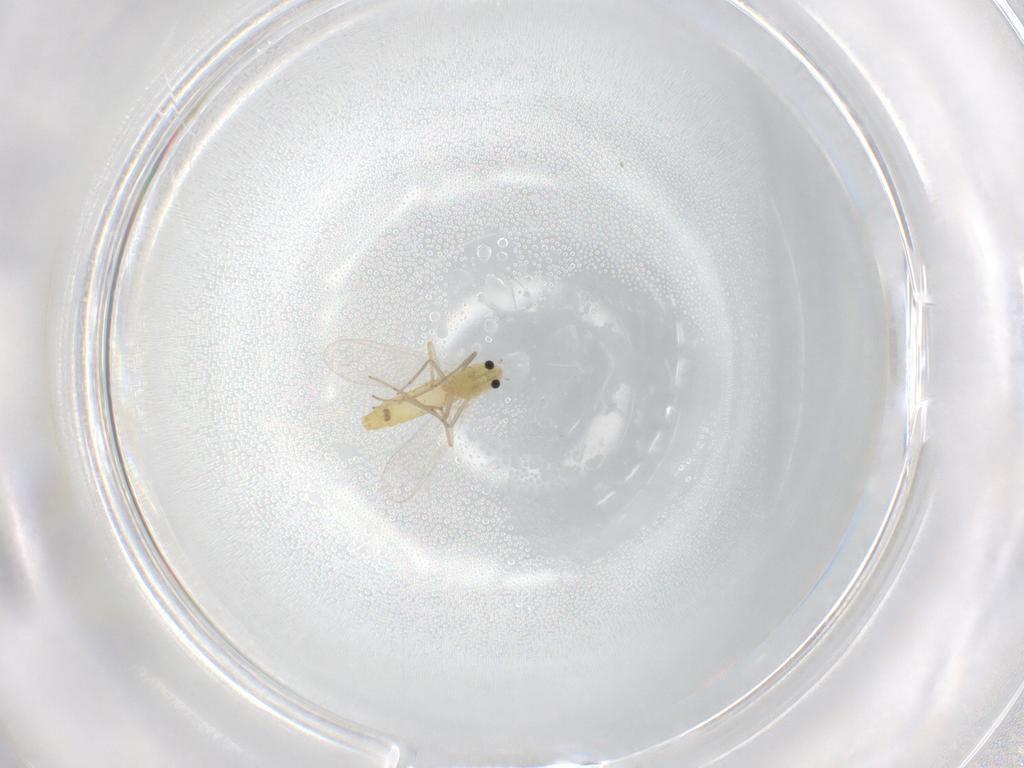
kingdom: Animalia
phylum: Arthropoda
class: Insecta
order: Diptera
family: Chironomidae
